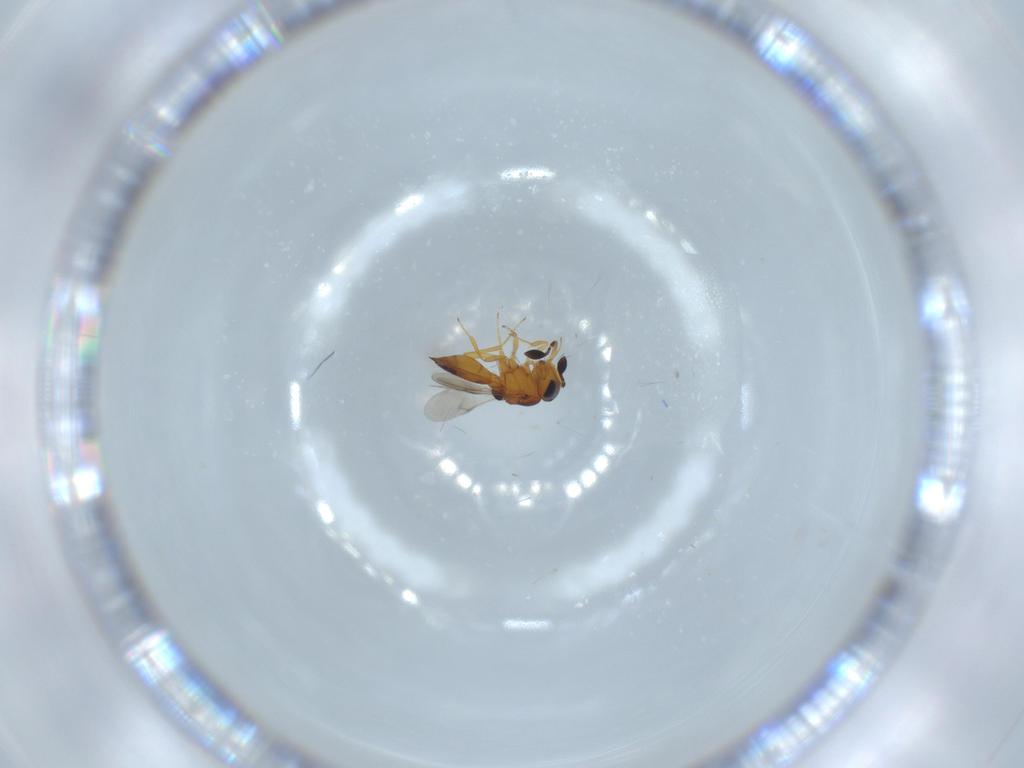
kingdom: Animalia
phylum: Arthropoda
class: Insecta
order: Hymenoptera
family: Scelionidae
